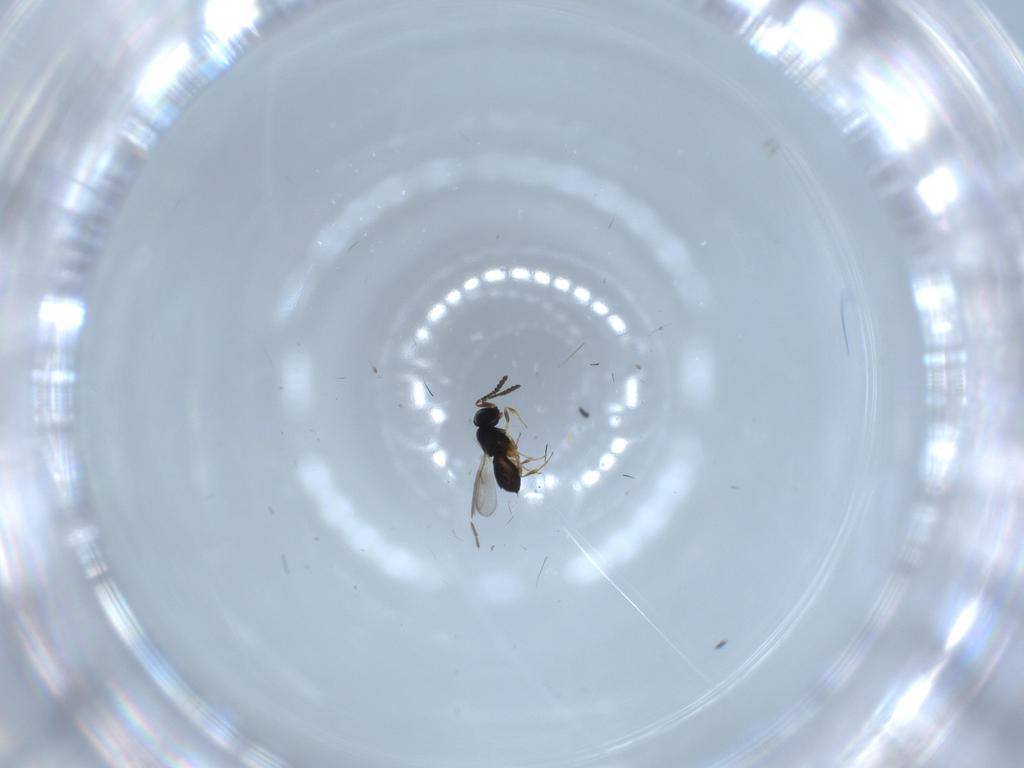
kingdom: Animalia
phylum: Arthropoda
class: Insecta
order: Hymenoptera
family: Scelionidae
